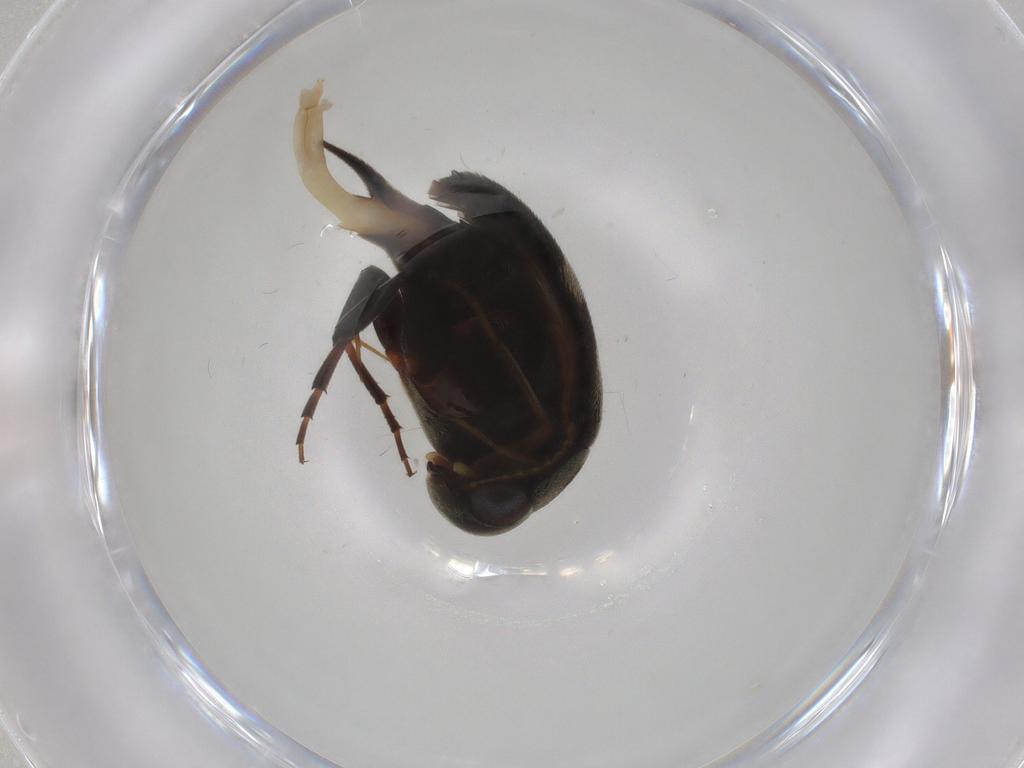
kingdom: Animalia
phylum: Arthropoda
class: Insecta
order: Coleoptera
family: Mordellidae
